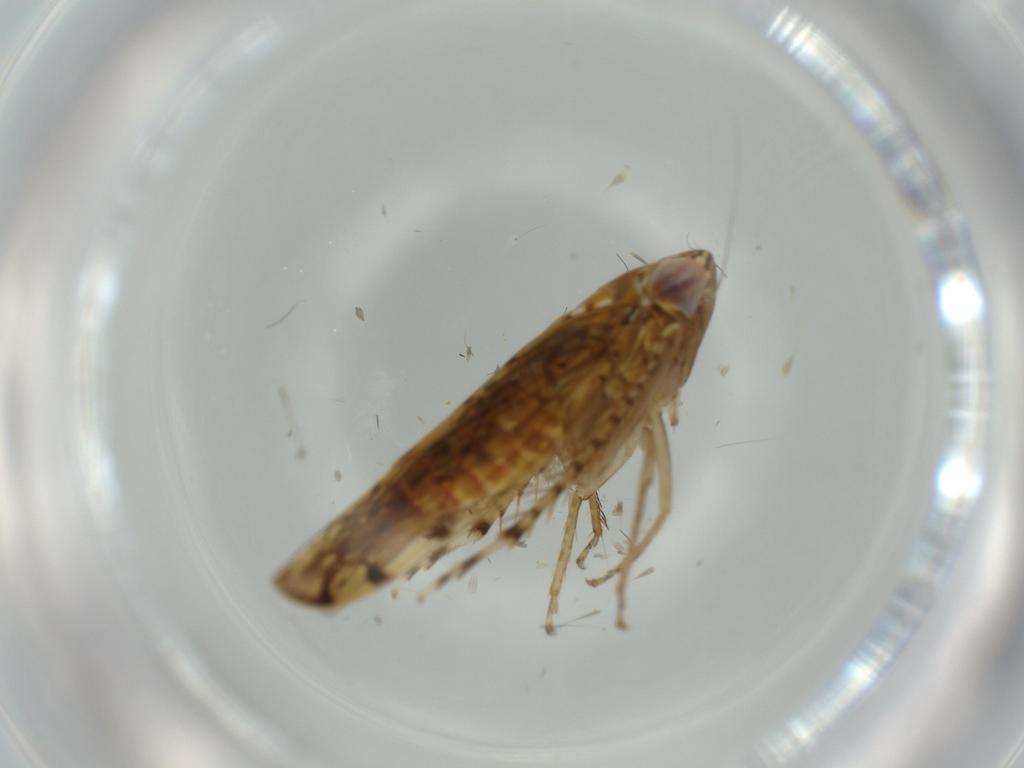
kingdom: Animalia
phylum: Arthropoda
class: Insecta
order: Hemiptera
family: Cicadellidae
